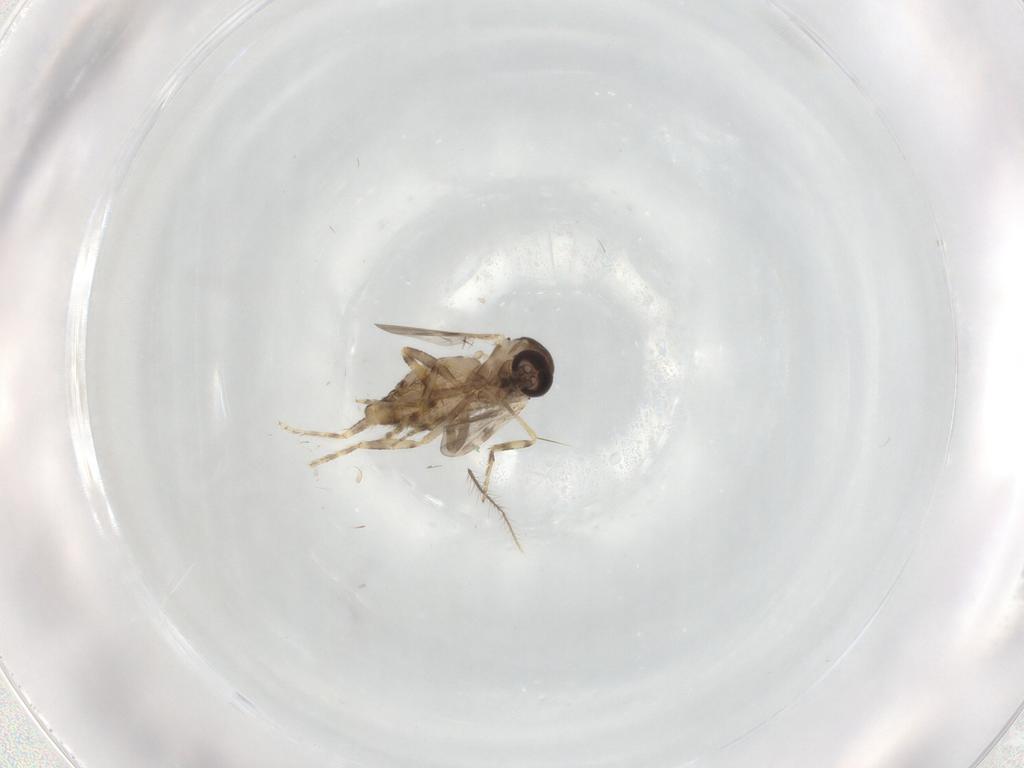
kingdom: Animalia
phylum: Arthropoda
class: Insecta
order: Diptera
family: Ceratopogonidae
